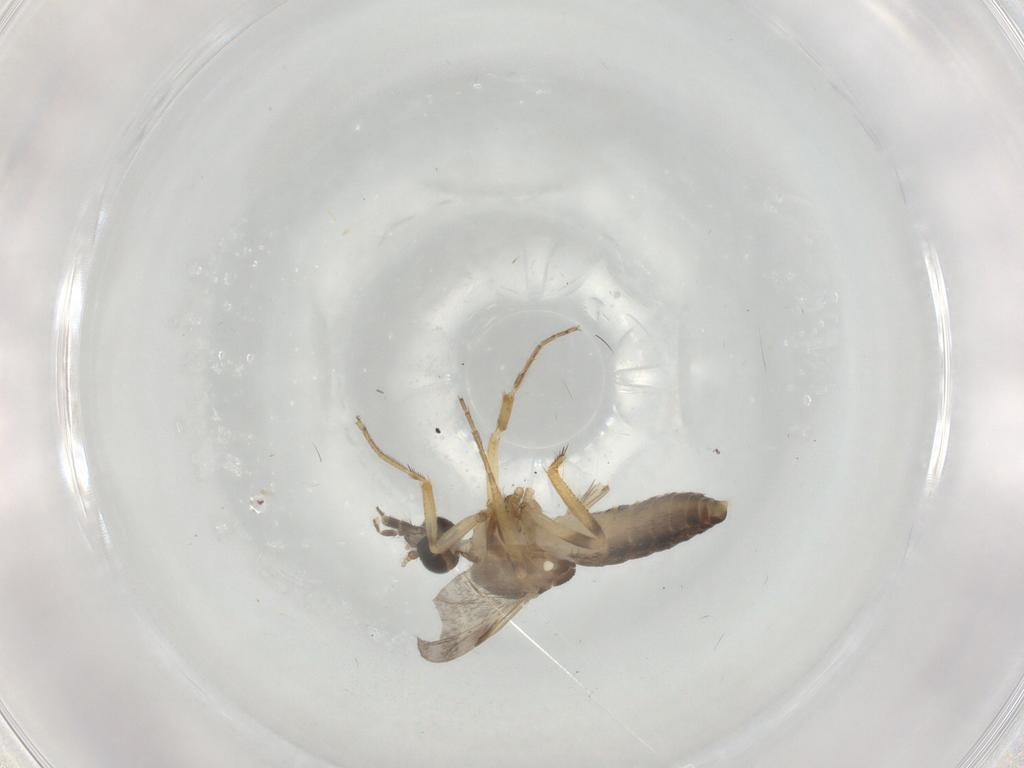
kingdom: Animalia
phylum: Arthropoda
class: Insecta
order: Diptera
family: Ceratopogonidae
